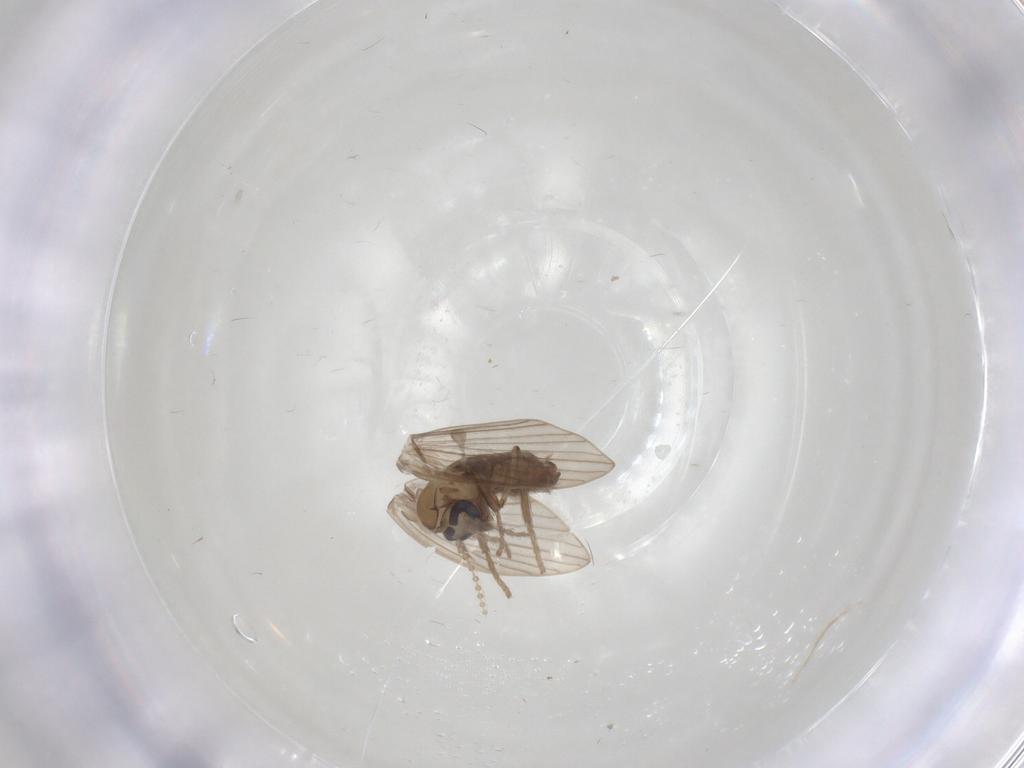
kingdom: Animalia
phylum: Arthropoda
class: Insecta
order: Diptera
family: Psychodidae
